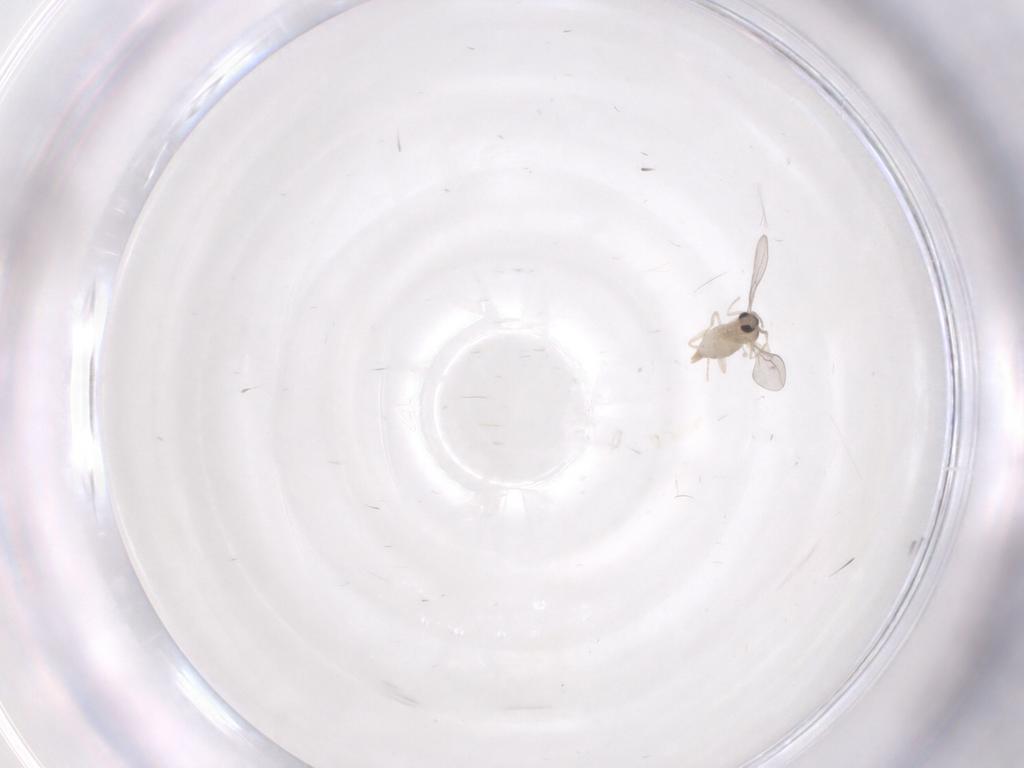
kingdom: Animalia
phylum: Arthropoda
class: Insecta
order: Diptera
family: Cecidomyiidae
